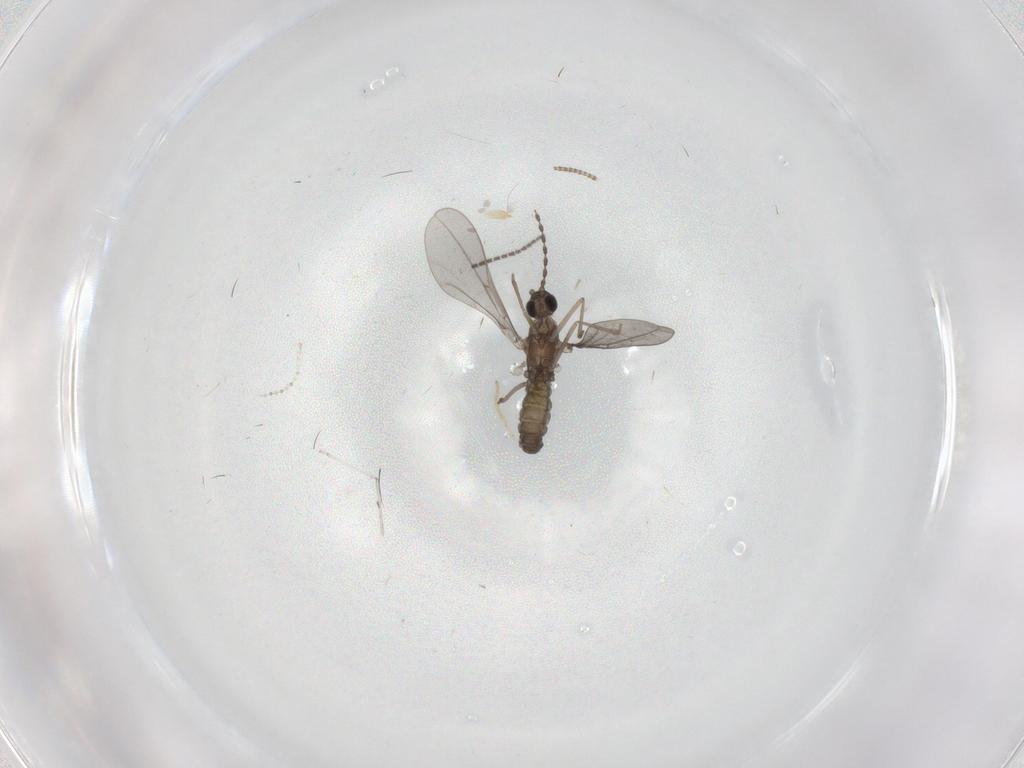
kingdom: Animalia
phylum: Arthropoda
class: Insecta
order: Diptera
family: Sciaridae
